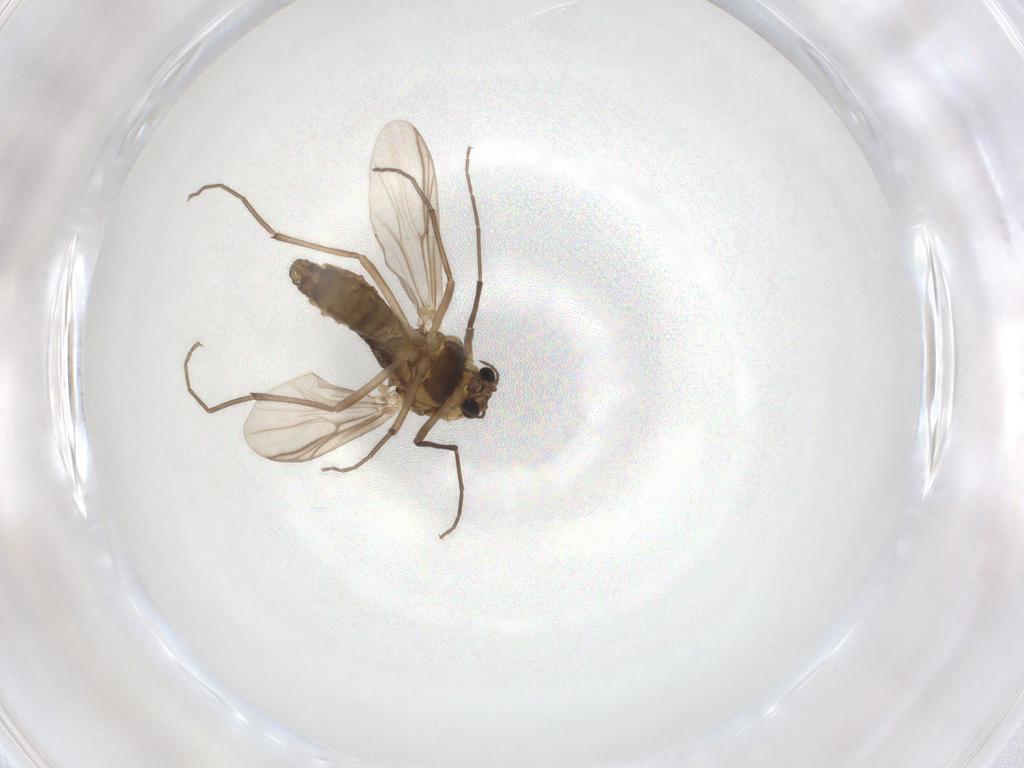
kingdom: Animalia
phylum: Arthropoda
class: Insecta
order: Diptera
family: Chironomidae
